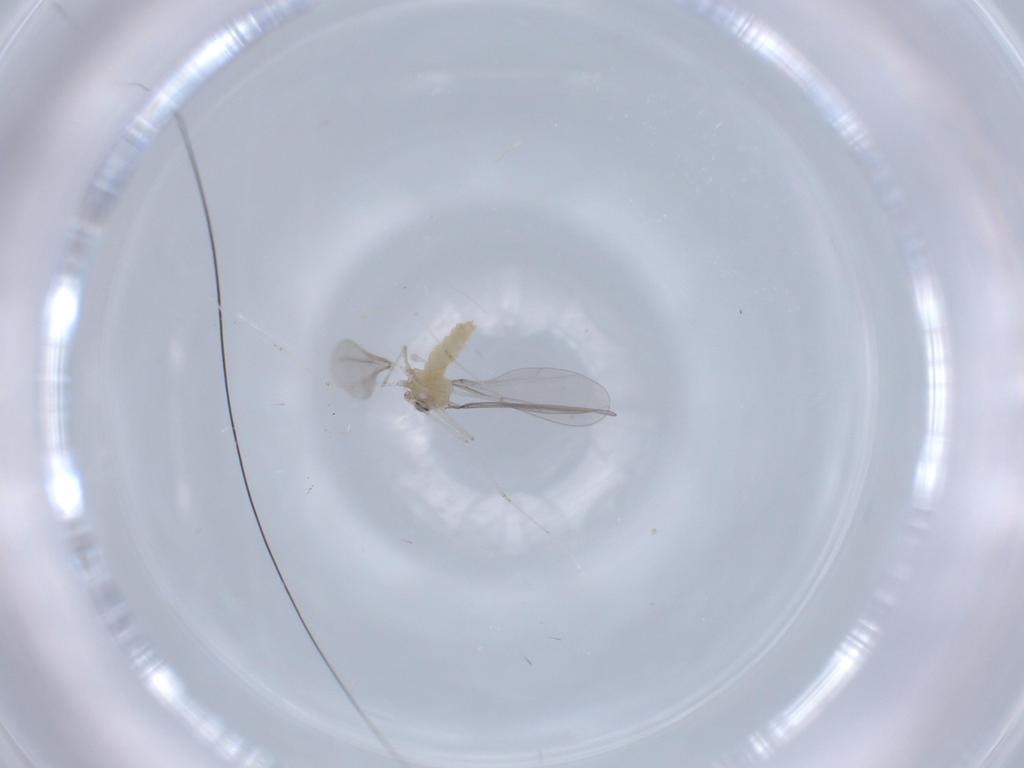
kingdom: Animalia
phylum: Arthropoda
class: Insecta
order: Diptera
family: Cecidomyiidae
